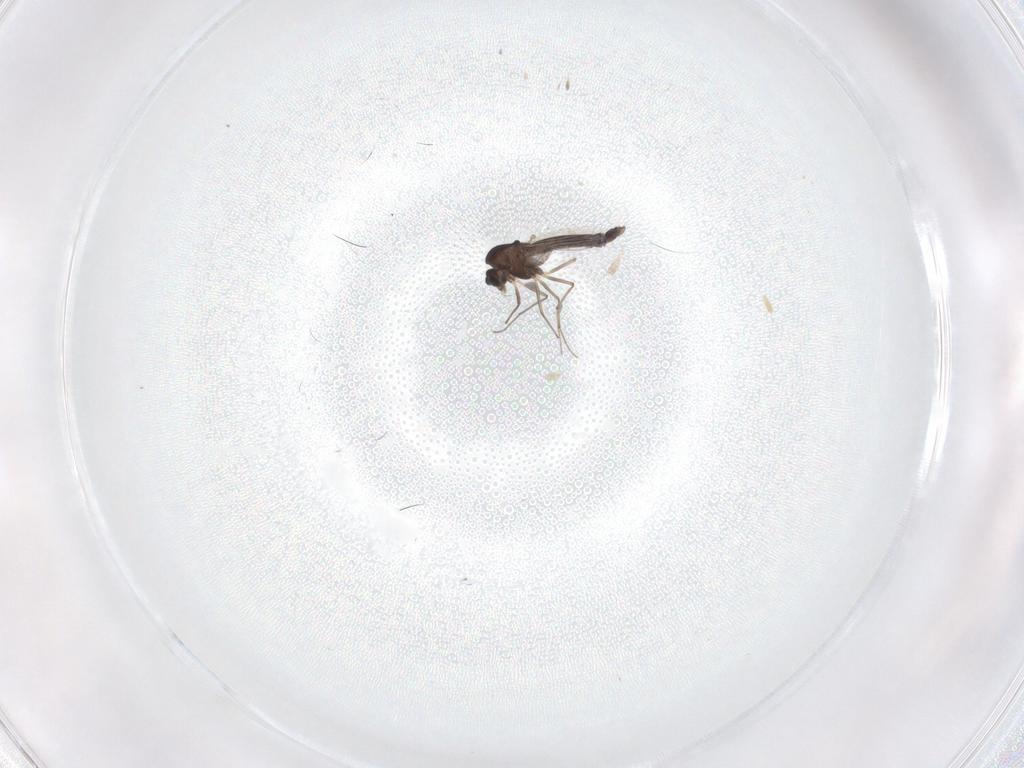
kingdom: Animalia
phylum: Arthropoda
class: Insecta
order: Diptera
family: Chironomidae
